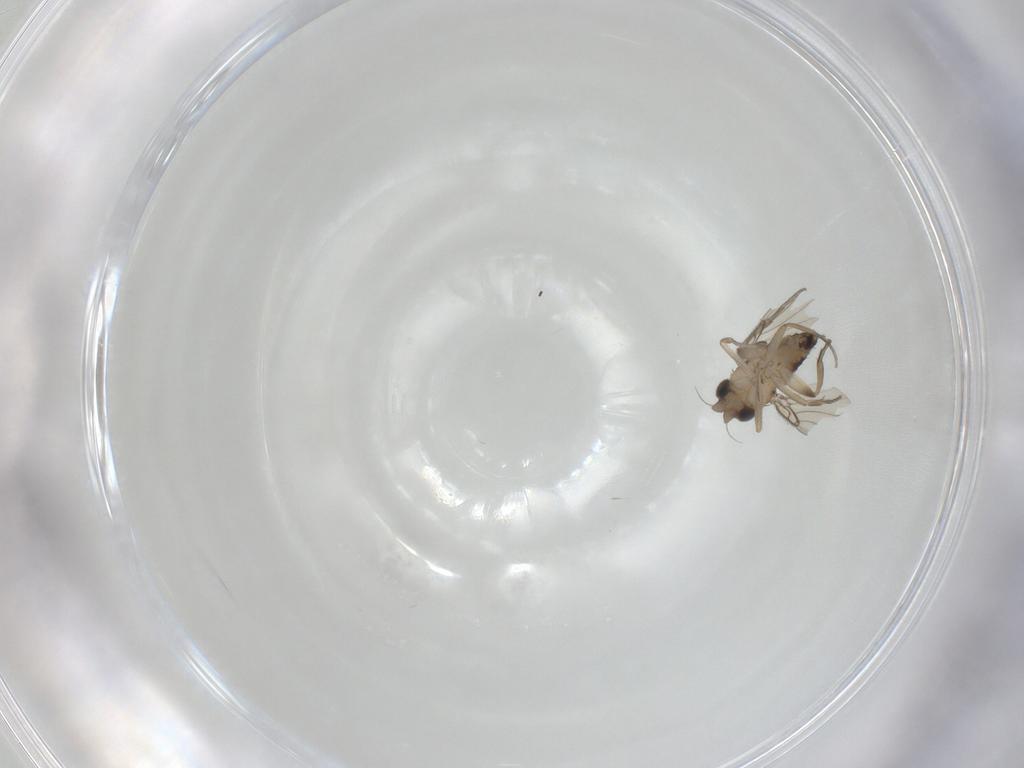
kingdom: Animalia
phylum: Arthropoda
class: Insecta
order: Diptera
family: Phoridae
